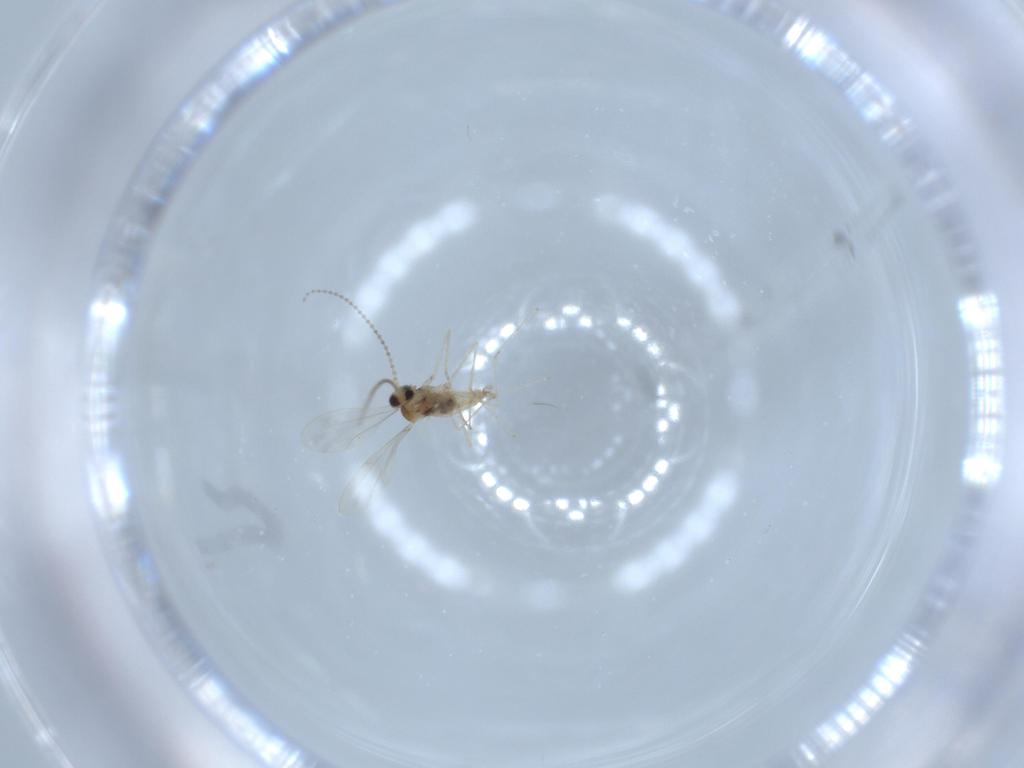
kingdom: Animalia
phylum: Arthropoda
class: Insecta
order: Diptera
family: Cecidomyiidae
